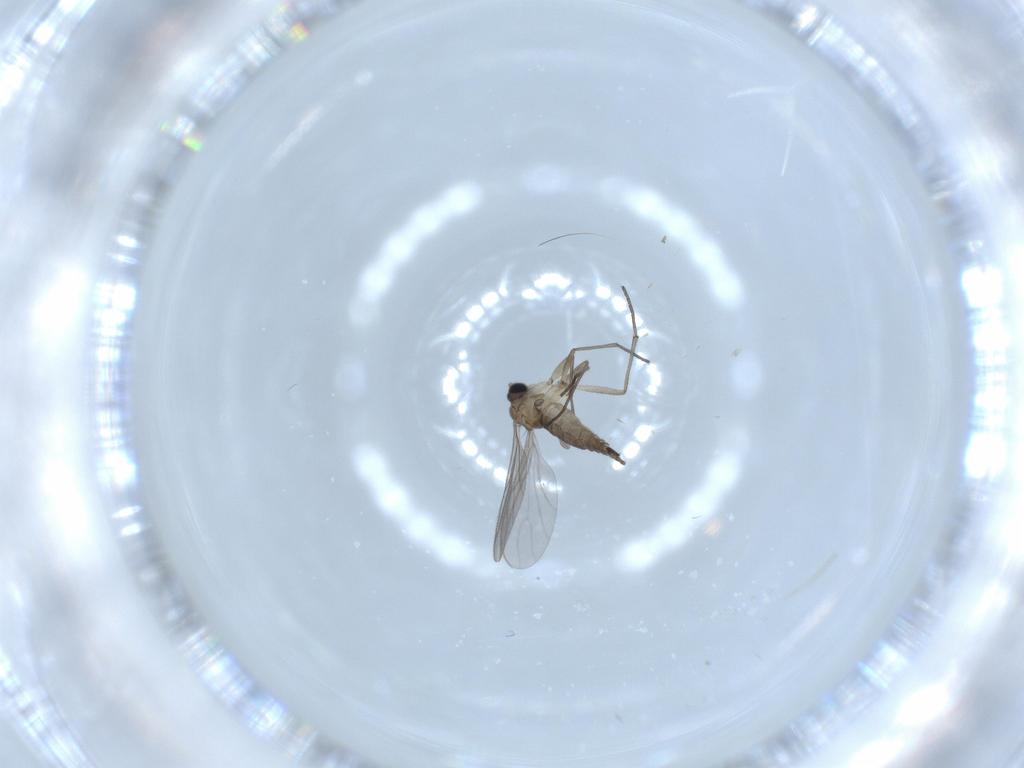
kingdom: Animalia
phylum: Arthropoda
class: Insecta
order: Diptera
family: Sciaridae
